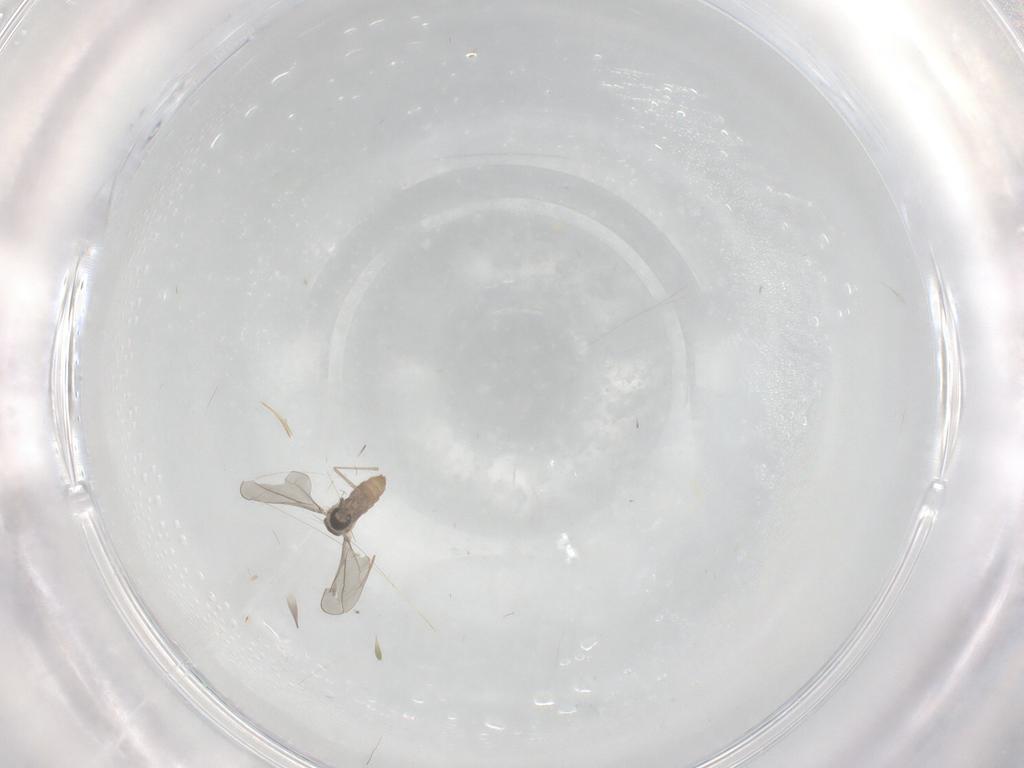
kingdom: Animalia
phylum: Arthropoda
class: Insecta
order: Diptera
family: Cecidomyiidae
